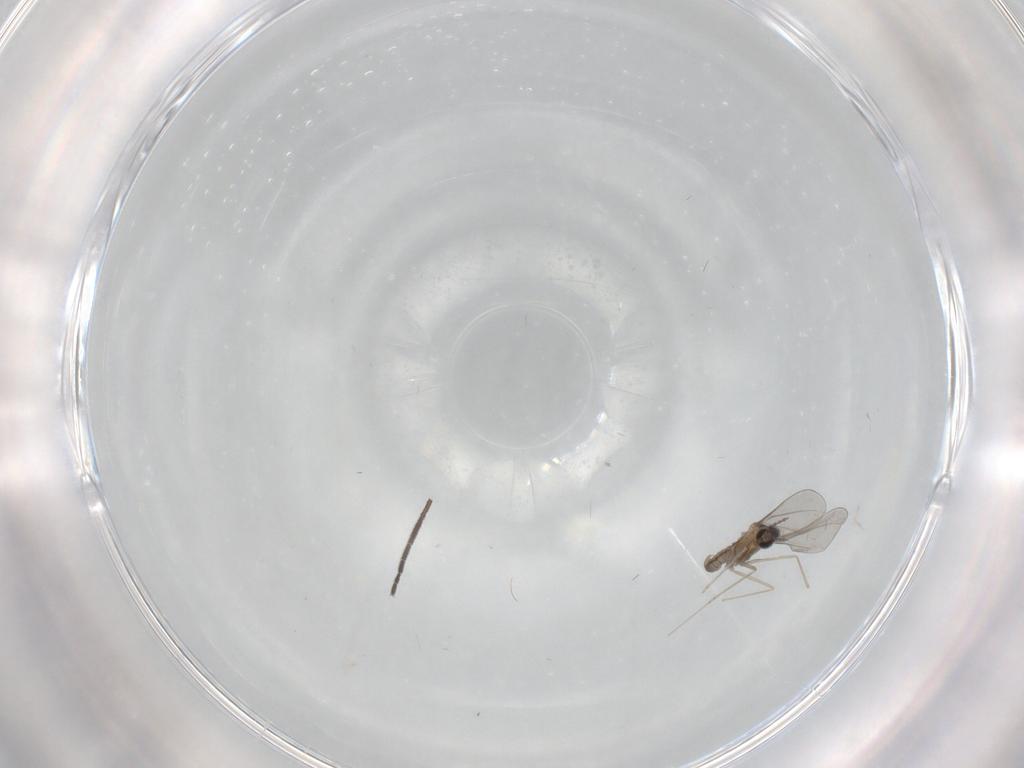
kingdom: Animalia
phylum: Arthropoda
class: Insecta
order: Diptera
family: Cecidomyiidae
